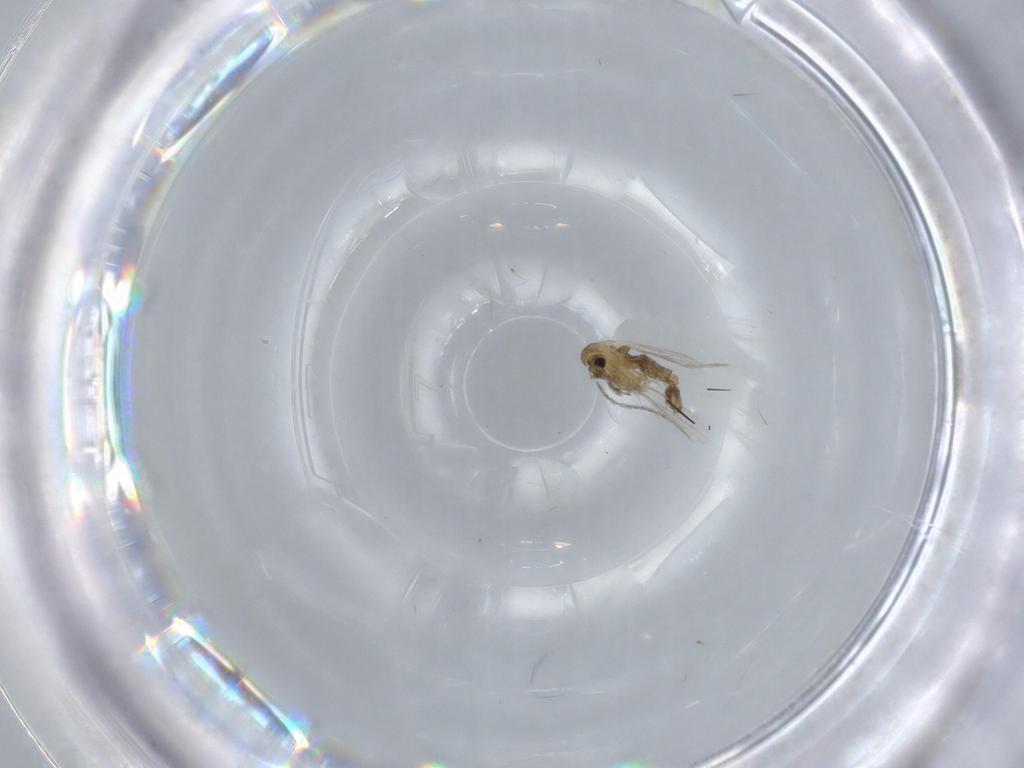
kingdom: Animalia
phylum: Arthropoda
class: Insecta
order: Diptera
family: Psychodidae
